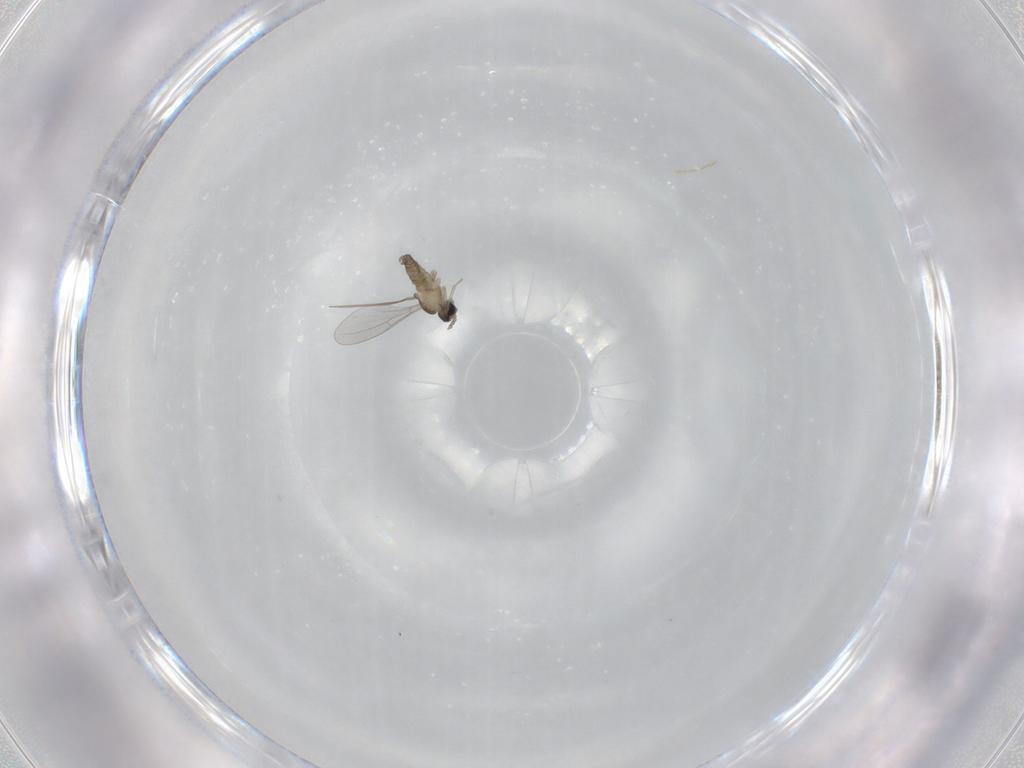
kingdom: Animalia
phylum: Arthropoda
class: Insecta
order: Diptera
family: Cecidomyiidae
